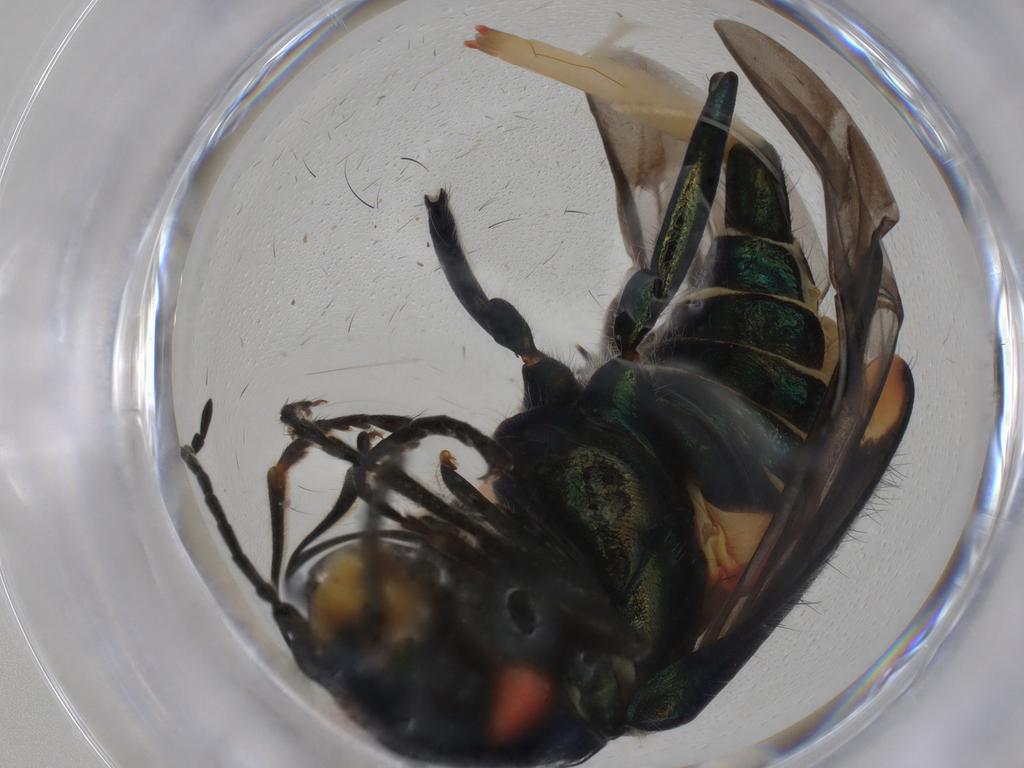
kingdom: Animalia
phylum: Arthropoda
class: Insecta
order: Coleoptera
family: Melyridae
